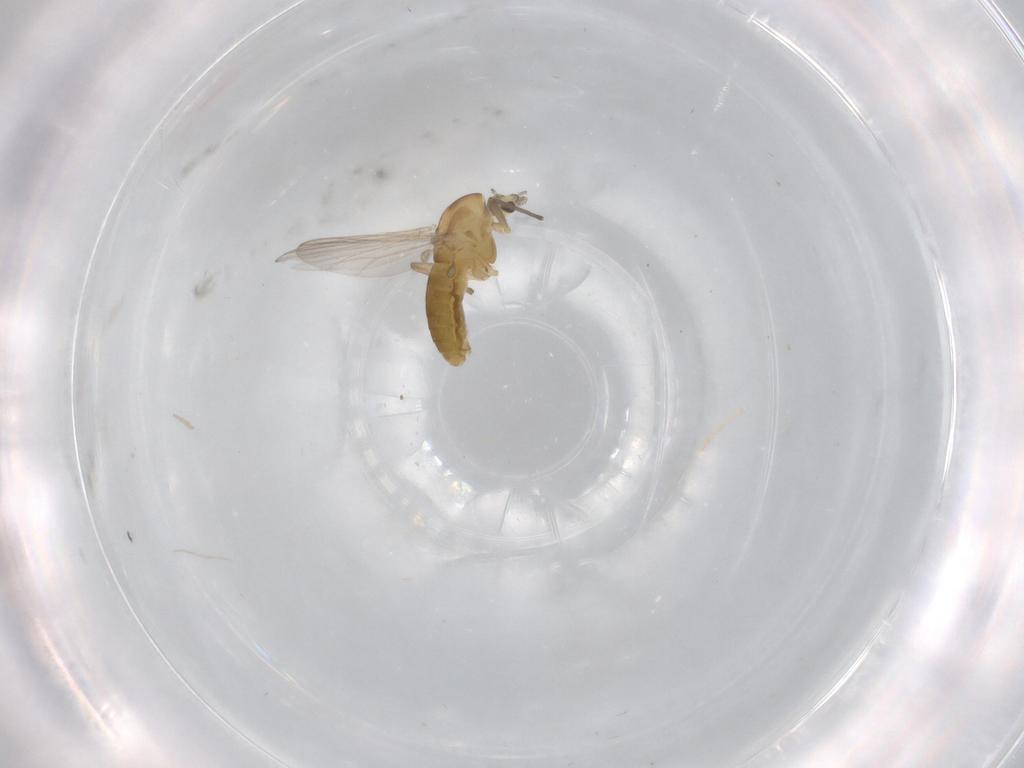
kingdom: Animalia
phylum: Arthropoda
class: Insecta
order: Diptera
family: Chironomidae
